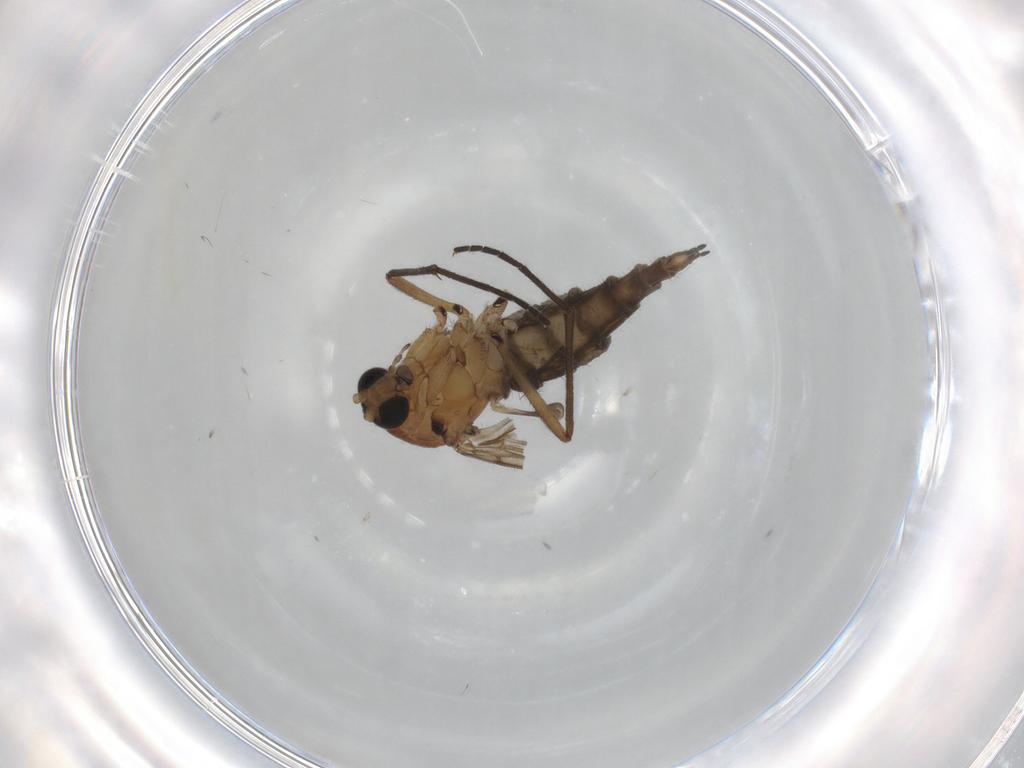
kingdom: Animalia
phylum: Arthropoda
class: Insecta
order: Diptera
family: Sciaridae
